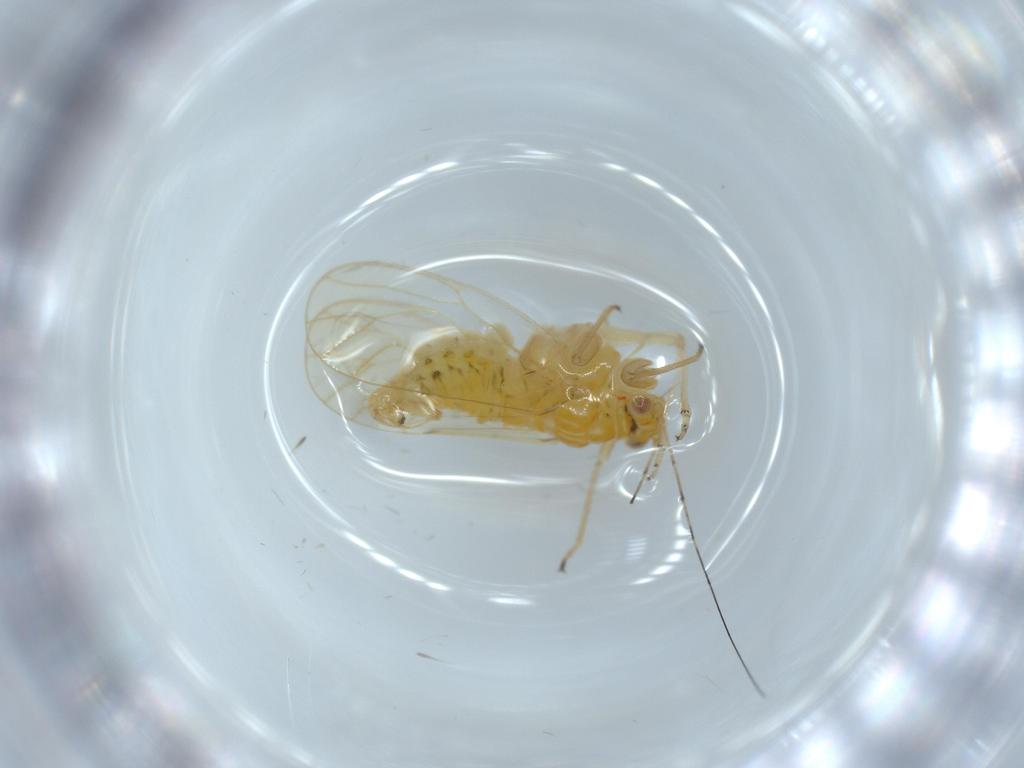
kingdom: Animalia
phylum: Arthropoda
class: Insecta
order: Hemiptera
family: Psyllidae
